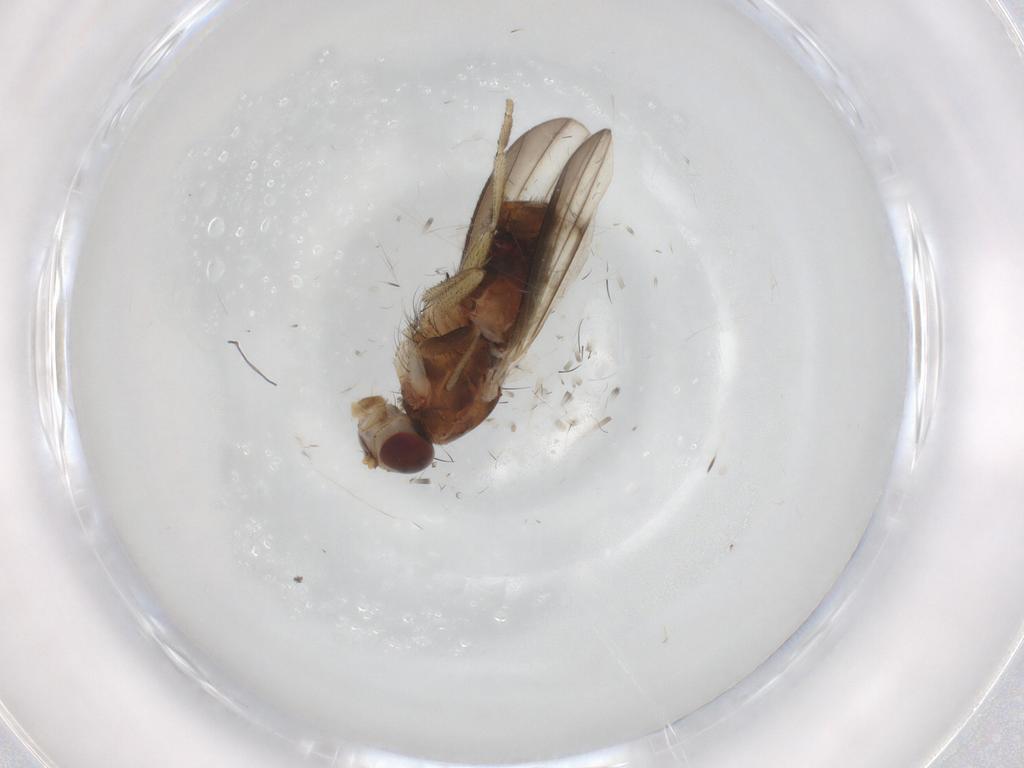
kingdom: Animalia
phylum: Arthropoda
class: Insecta
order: Diptera
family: Heleomyzidae
